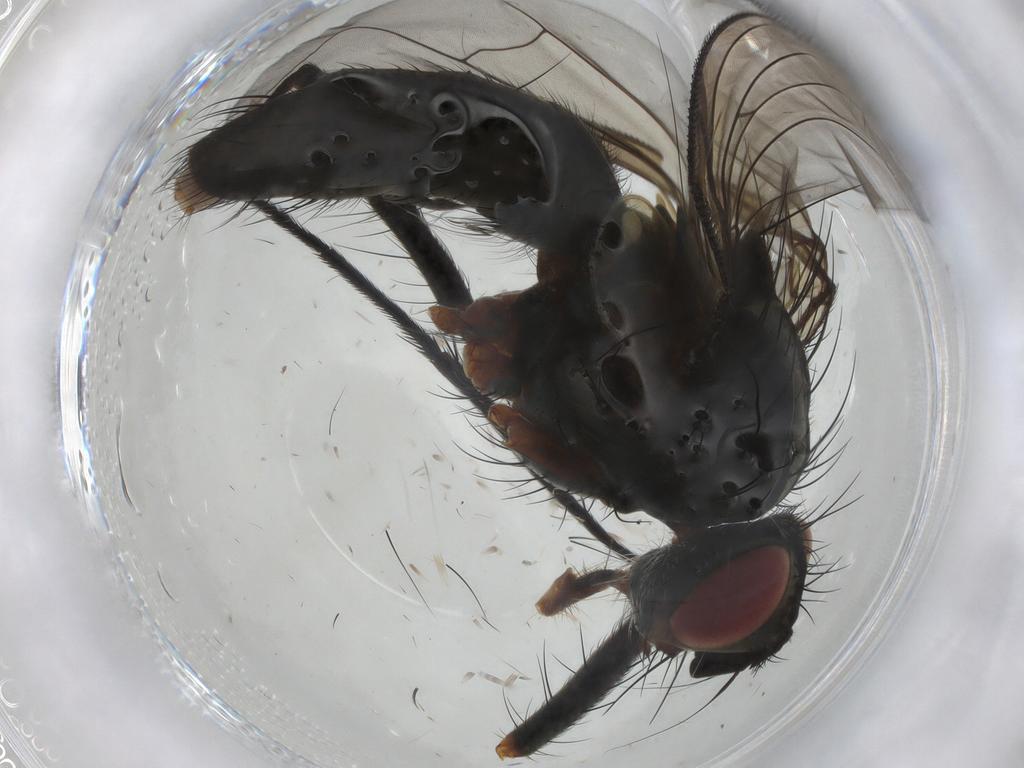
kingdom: Animalia
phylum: Arthropoda
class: Insecta
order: Diptera
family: Tachinidae
